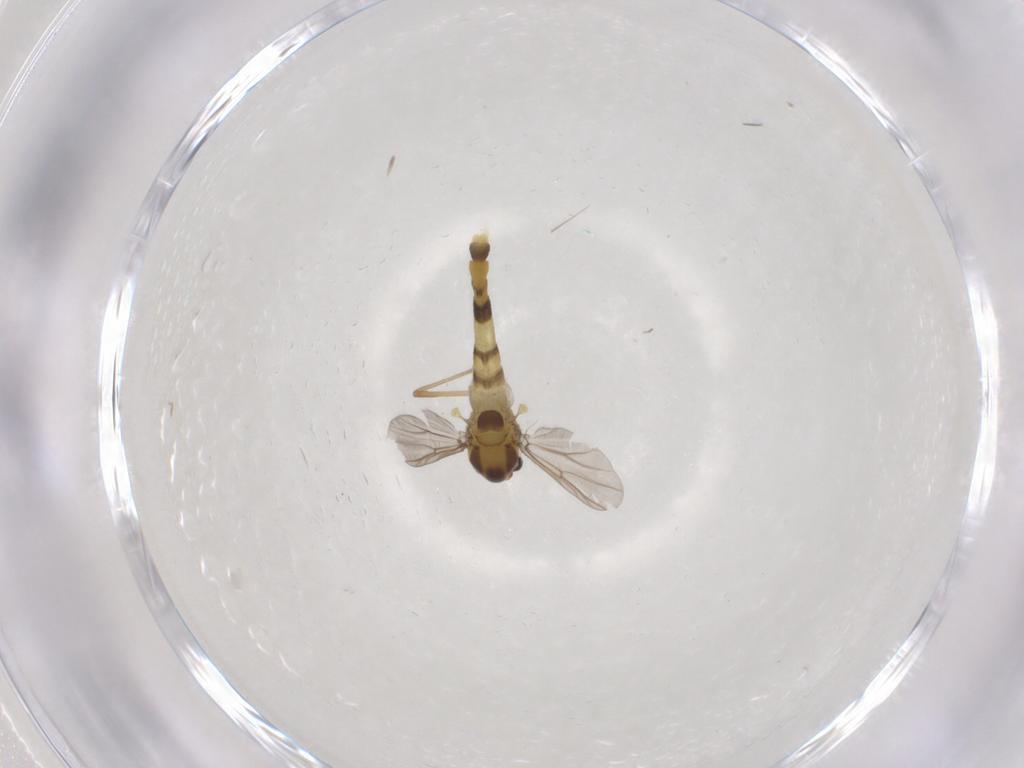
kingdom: Animalia
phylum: Arthropoda
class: Insecta
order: Diptera
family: Chironomidae
